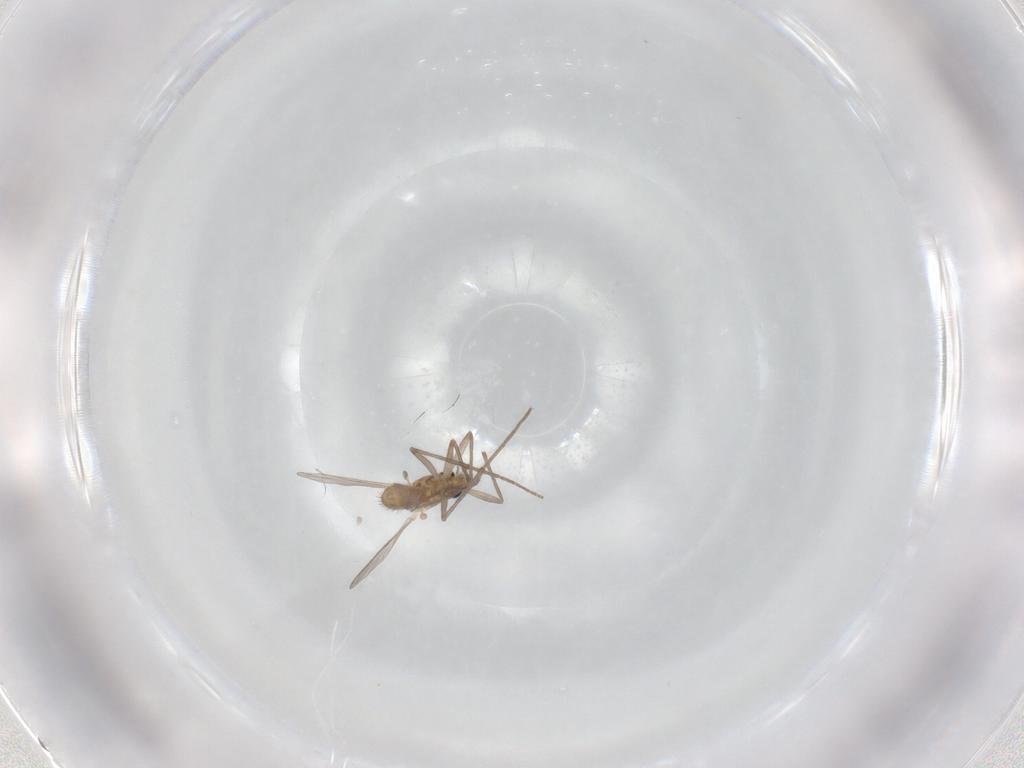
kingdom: Animalia
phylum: Arthropoda
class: Insecta
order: Diptera
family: Chironomidae
